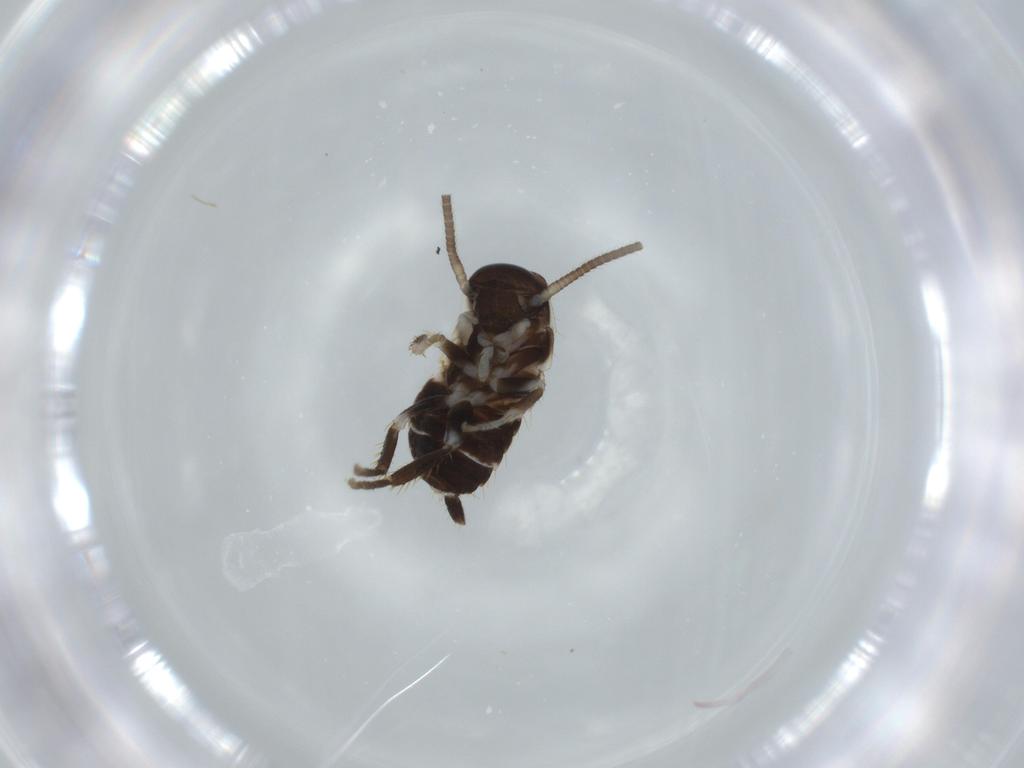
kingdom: Animalia
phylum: Arthropoda
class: Insecta
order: Blattodea
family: Ectobiidae
